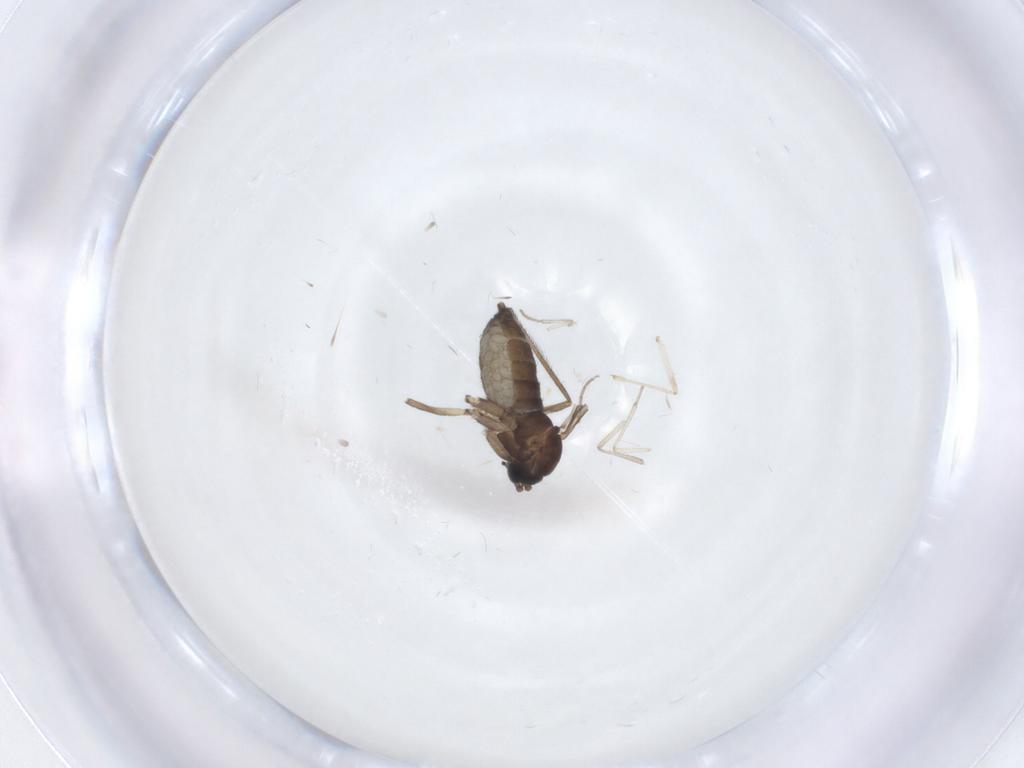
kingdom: Animalia
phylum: Arthropoda
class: Insecta
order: Diptera
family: Sciaridae
